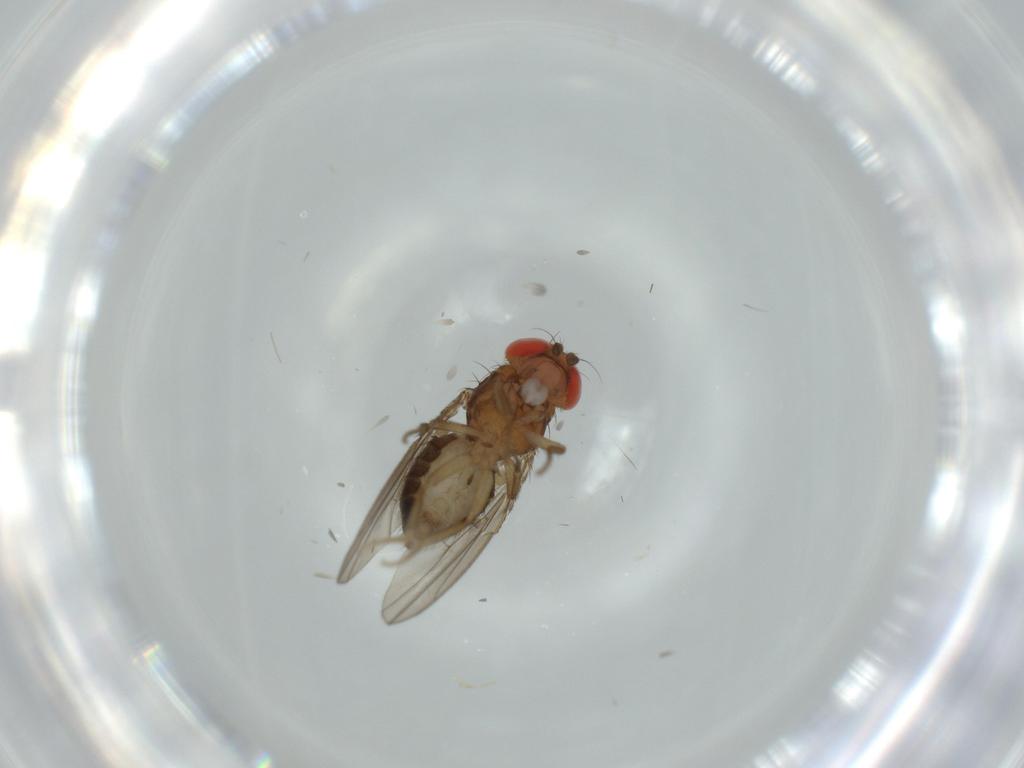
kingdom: Animalia
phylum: Arthropoda
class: Insecta
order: Diptera
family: Drosophilidae
